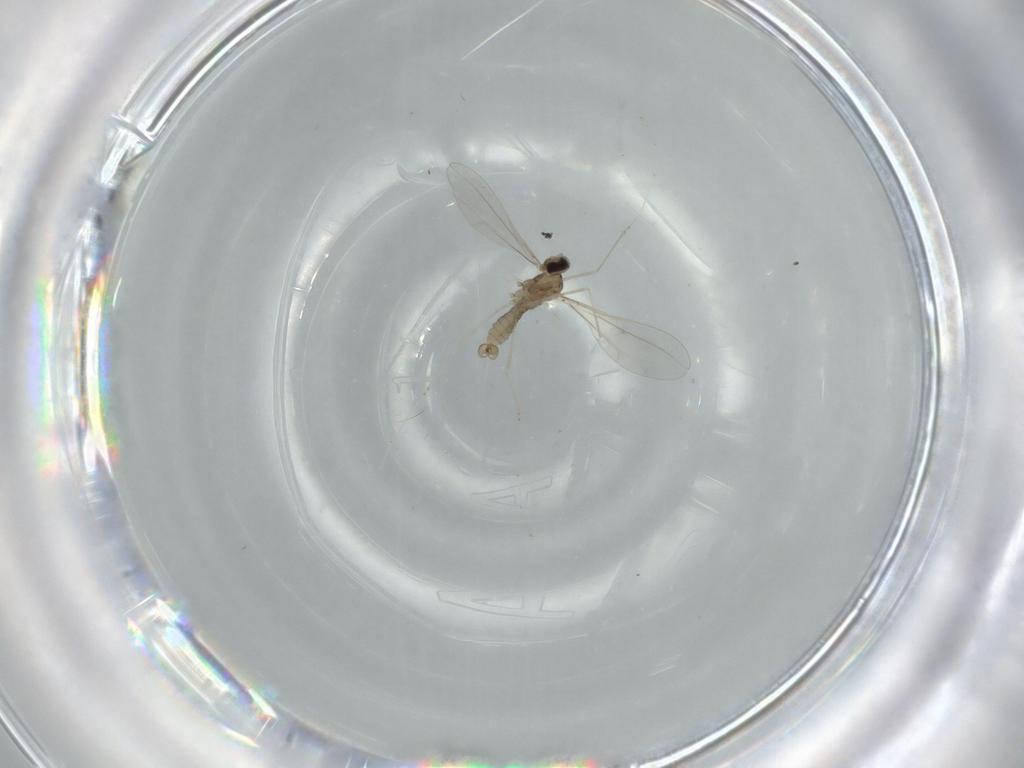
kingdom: Animalia
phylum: Arthropoda
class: Insecta
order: Diptera
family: Cecidomyiidae
